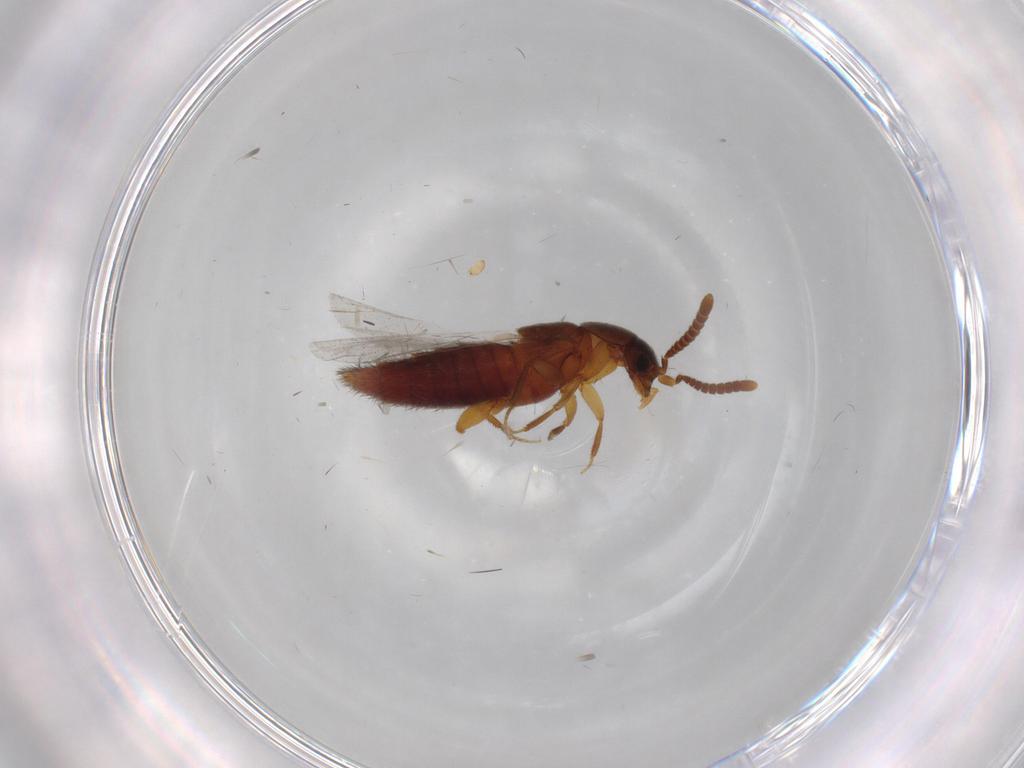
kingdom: Animalia
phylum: Arthropoda
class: Insecta
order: Coleoptera
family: Staphylinidae
